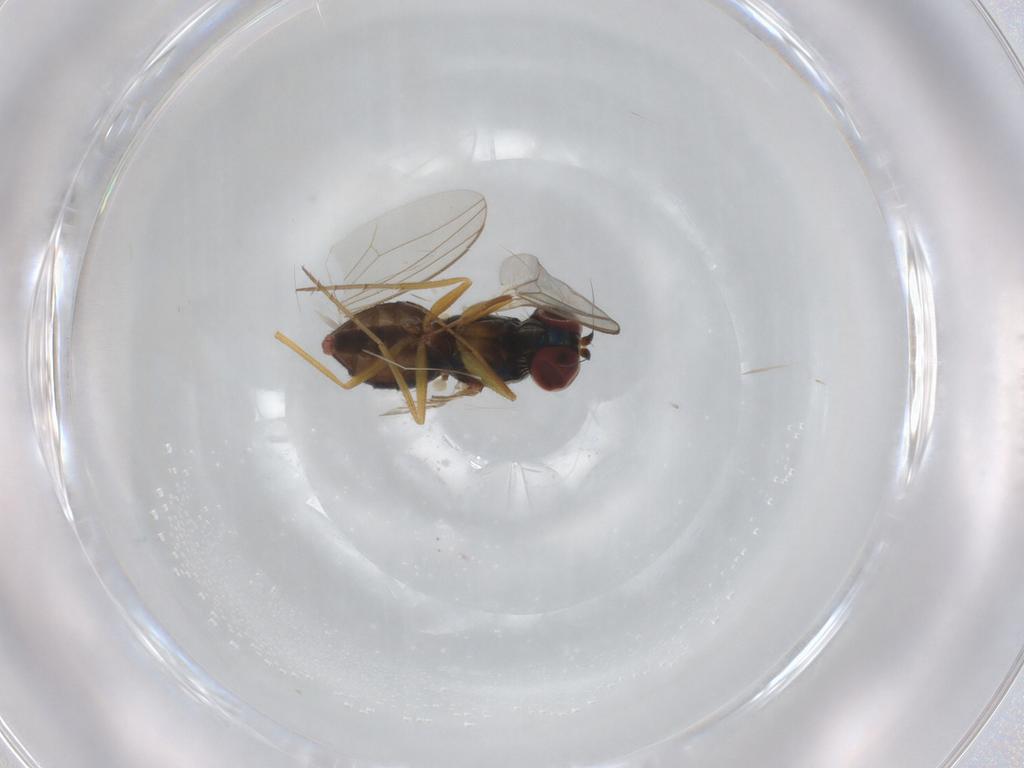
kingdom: Animalia
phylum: Arthropoda
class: Insecta
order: Diptera
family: Dolichopodidae
